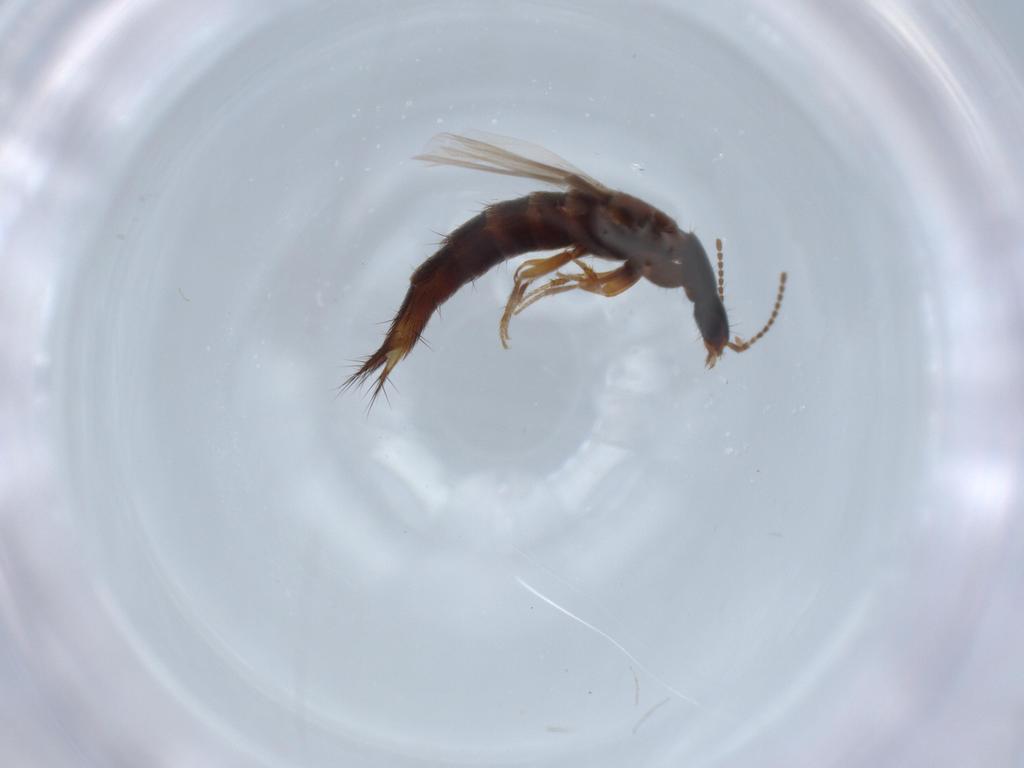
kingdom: Animalia
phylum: Arthropoda
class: Insecta
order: Coleoptera
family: Staphylinidae
